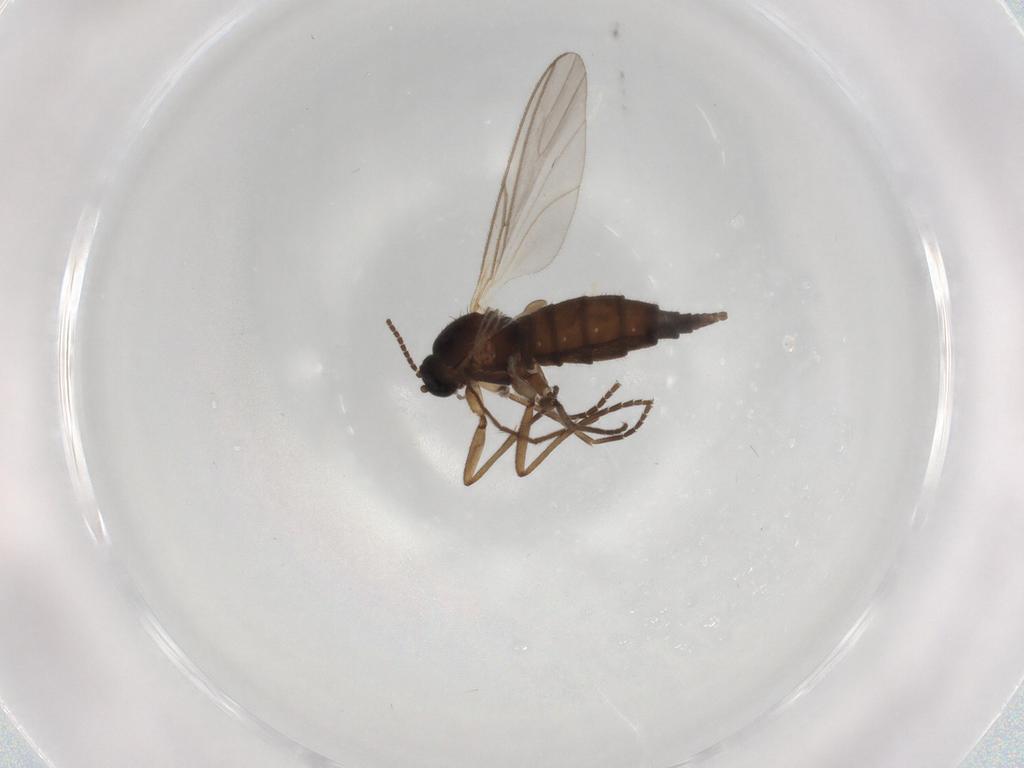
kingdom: Animalia
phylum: Arthropoda
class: Insecta
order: Diptera
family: Sciaridae
